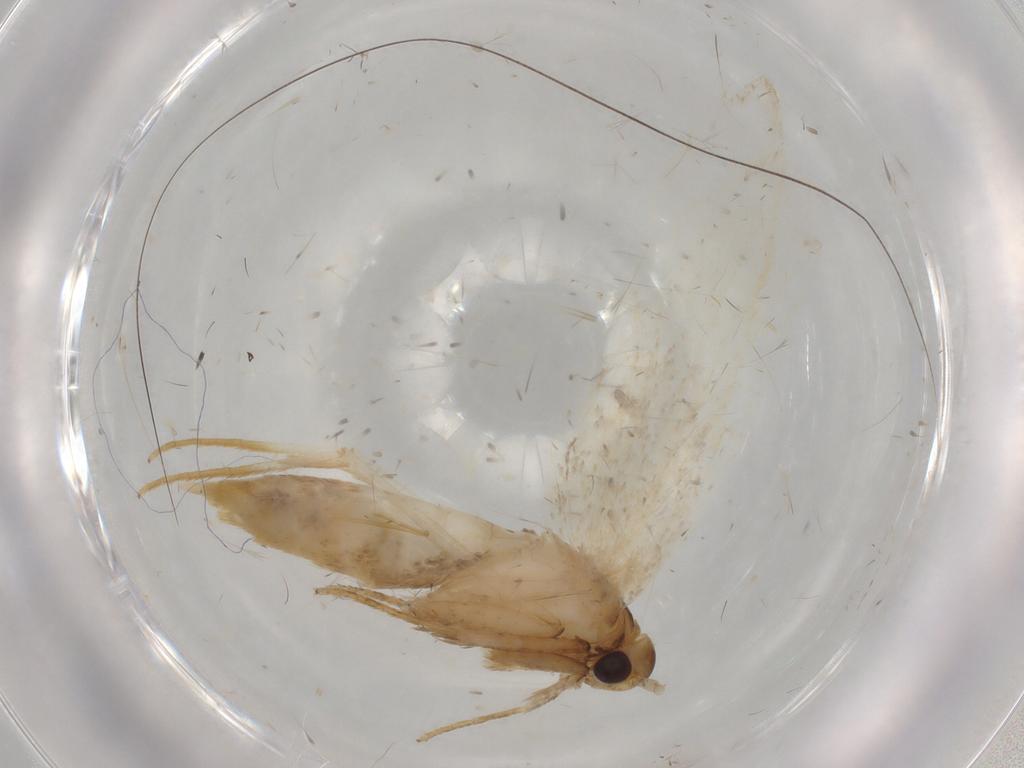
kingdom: Animalia
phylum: Arthropoda
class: Insecta
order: Lepidoptera
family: Lecithoceridae
